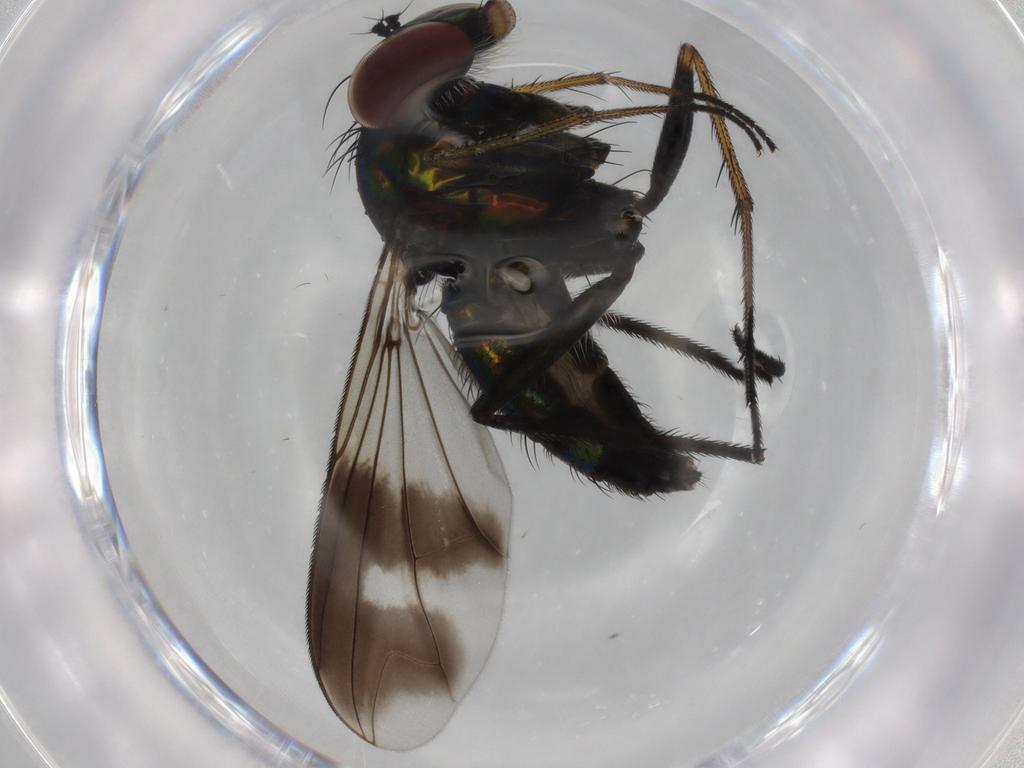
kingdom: Animalia
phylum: Arthropoda
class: Insecta
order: Diptera
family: Dolichopodidae
